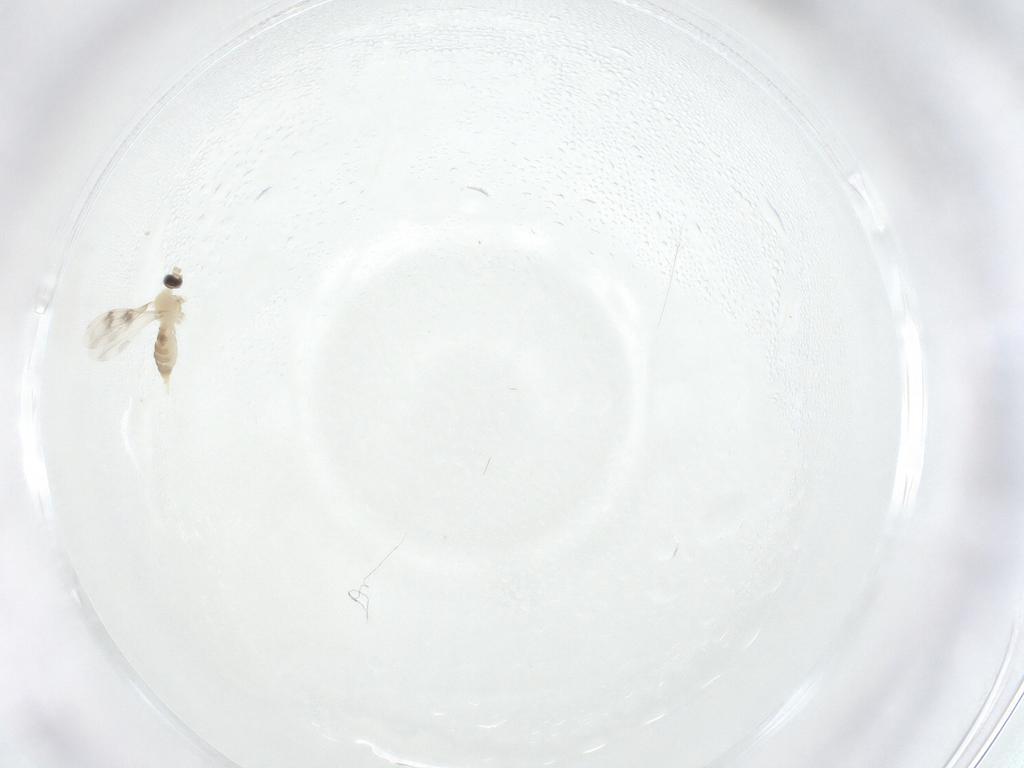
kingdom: Animalia
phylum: Arthropoda
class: Insecta
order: Diptera
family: Cecidomyiidae
